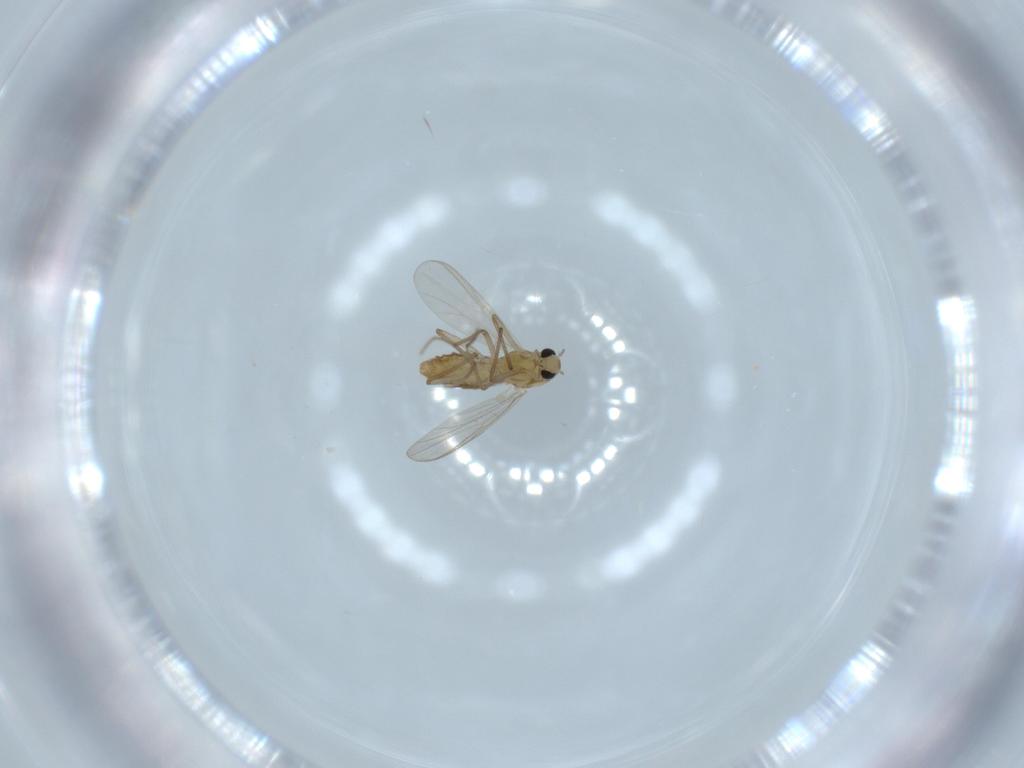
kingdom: Animalia
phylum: Arthropoda
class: Insecta
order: Diptera
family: Chironomidae
